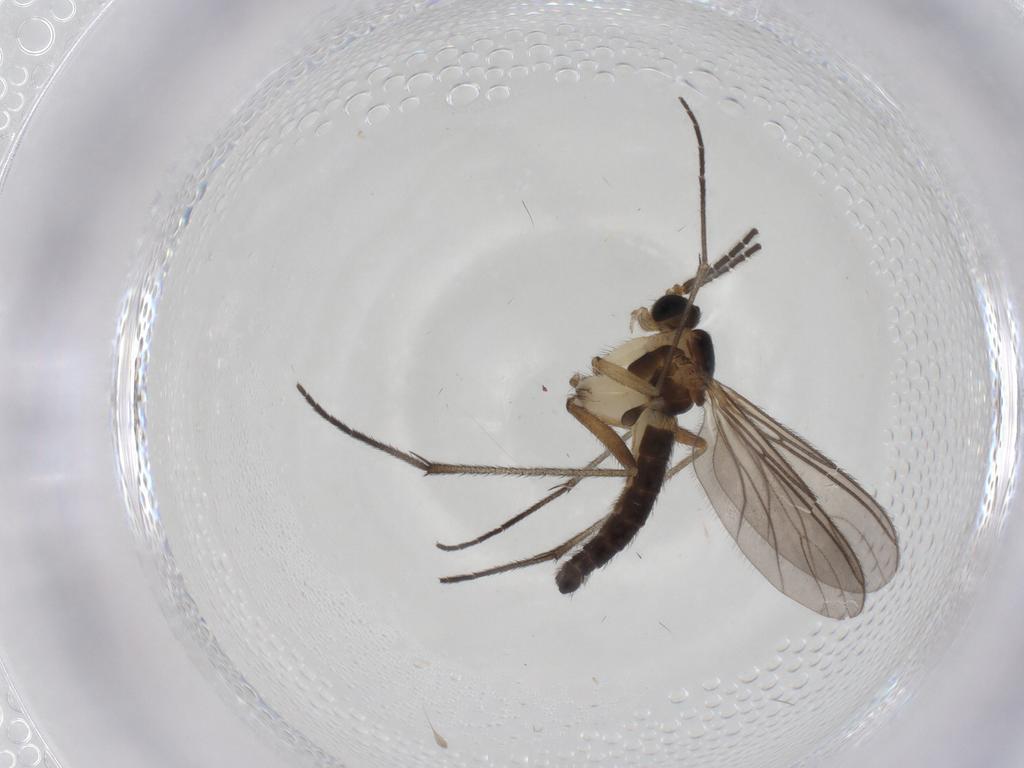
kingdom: Animalia
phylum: Arthropoda
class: Insecta
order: Diptera
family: Sciaridae
